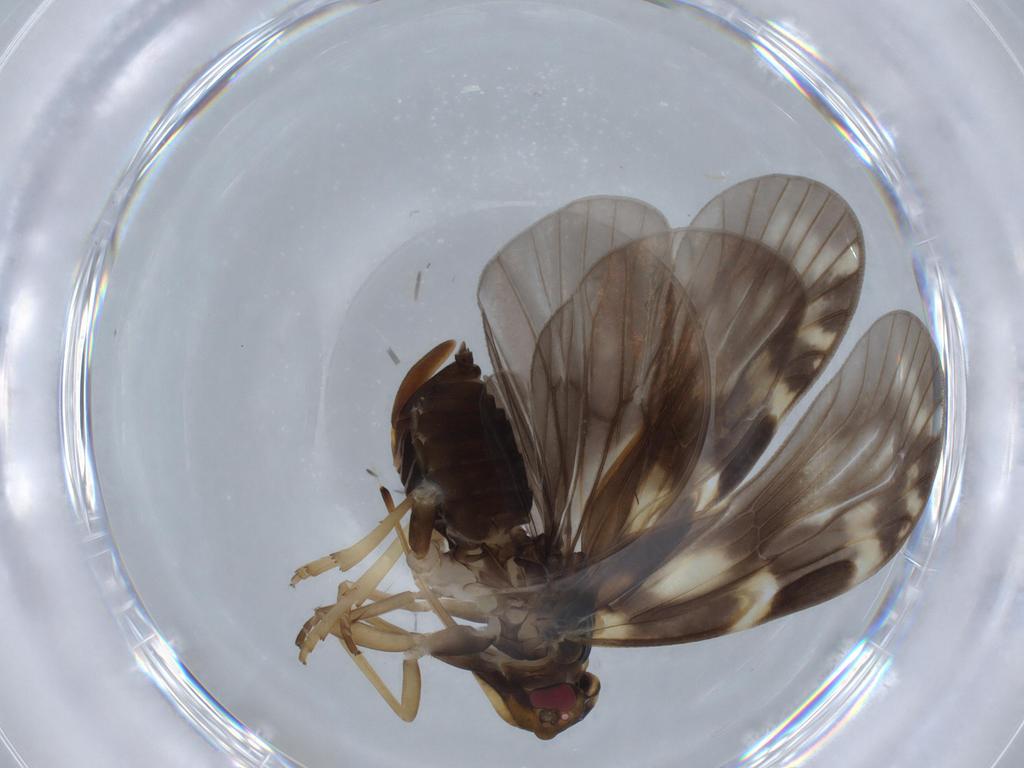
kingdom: Animalia
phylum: Arthropoda
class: Insecta
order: Hemiptera
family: Cixiidae
